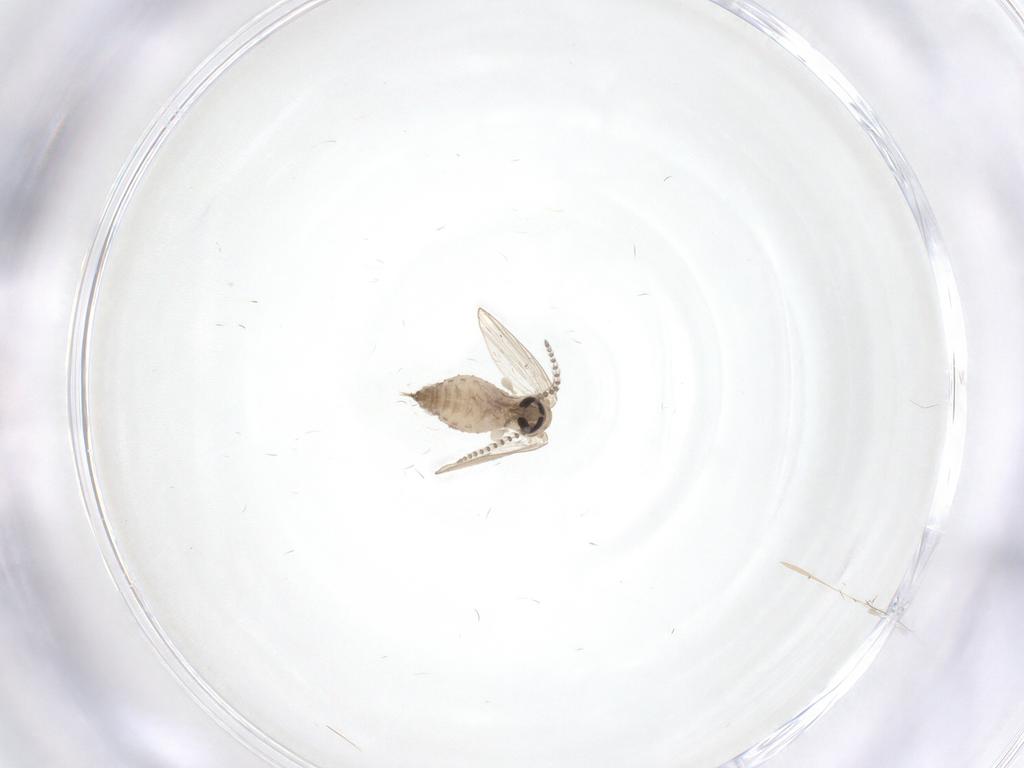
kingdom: Animalia
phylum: Arthropoda
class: Insecta
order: Diptera
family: Psychodidae
